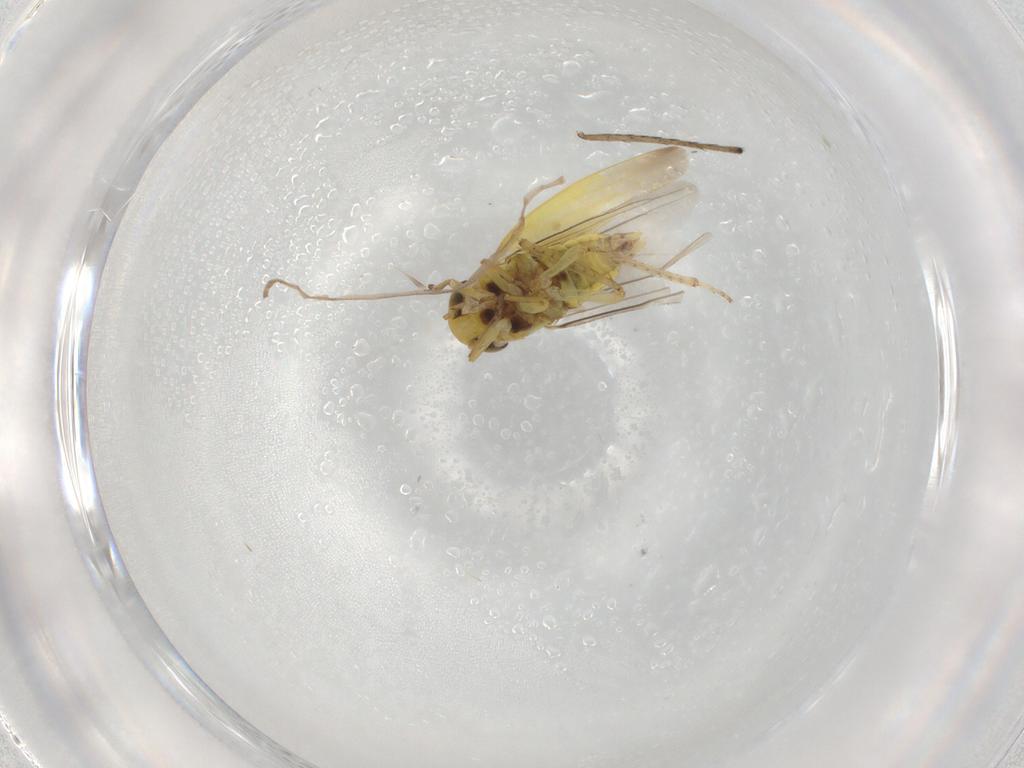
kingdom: Animalia
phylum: Arthropoda
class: Insecta
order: Hemiptera
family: Cicadellidae
